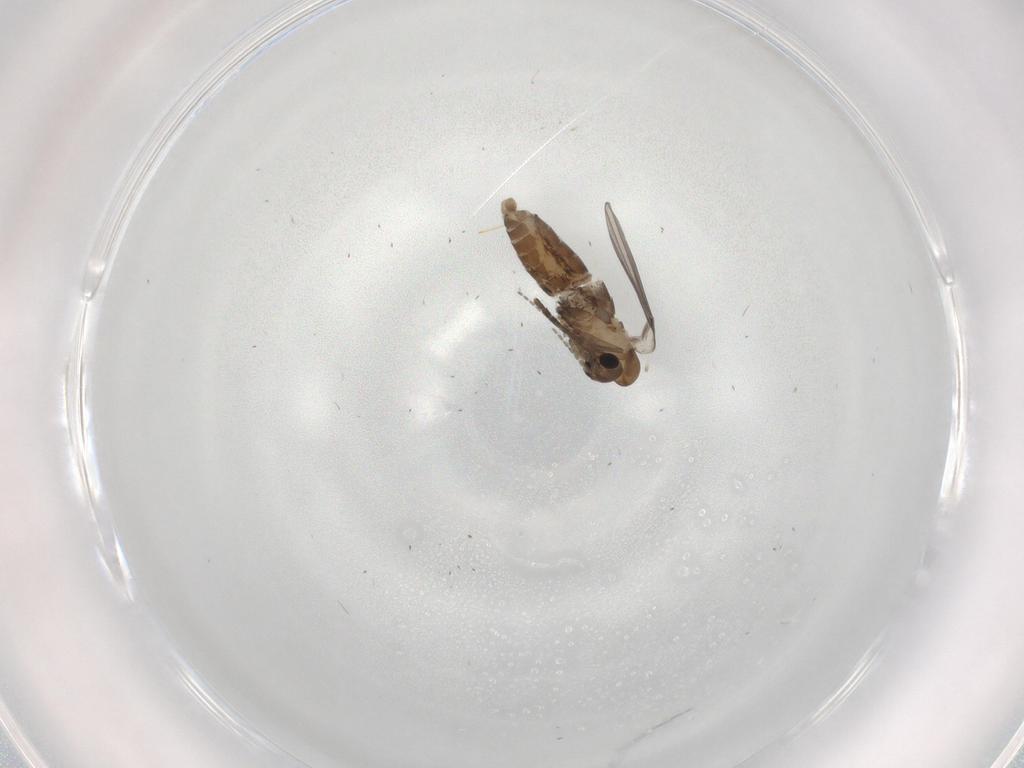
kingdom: Animalia
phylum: Arthropoda
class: Insecta
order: Diptera
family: Psychodidae
